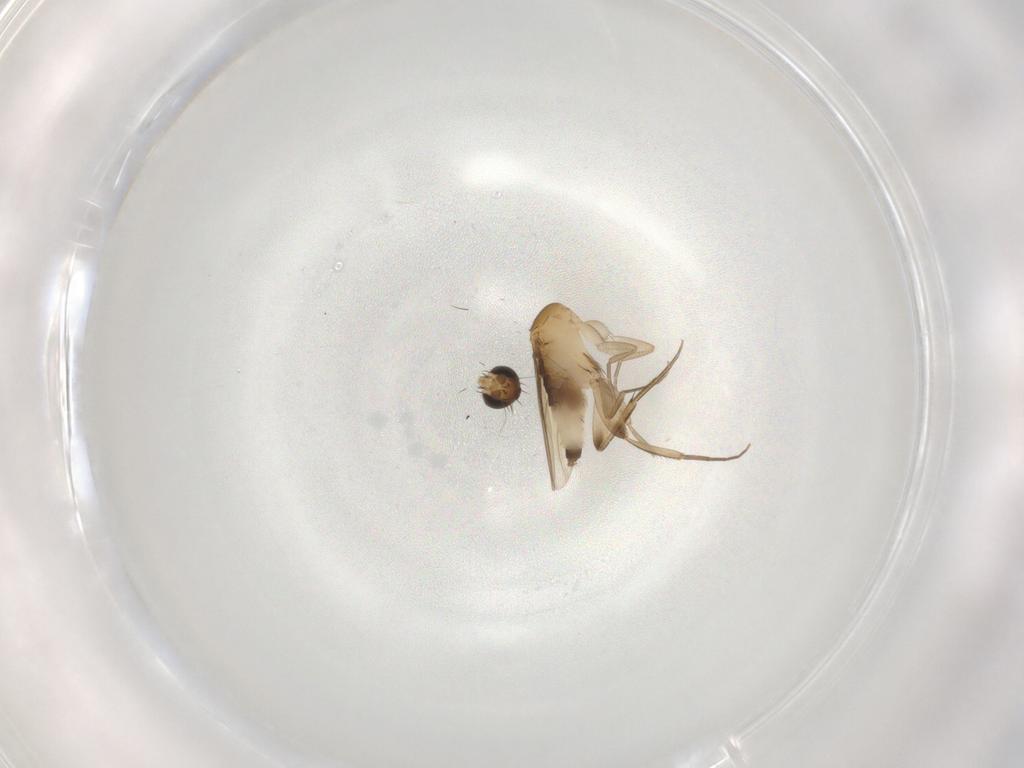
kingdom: Animalia
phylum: Arthropoda
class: Insecta
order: Diptera
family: Phoridae
